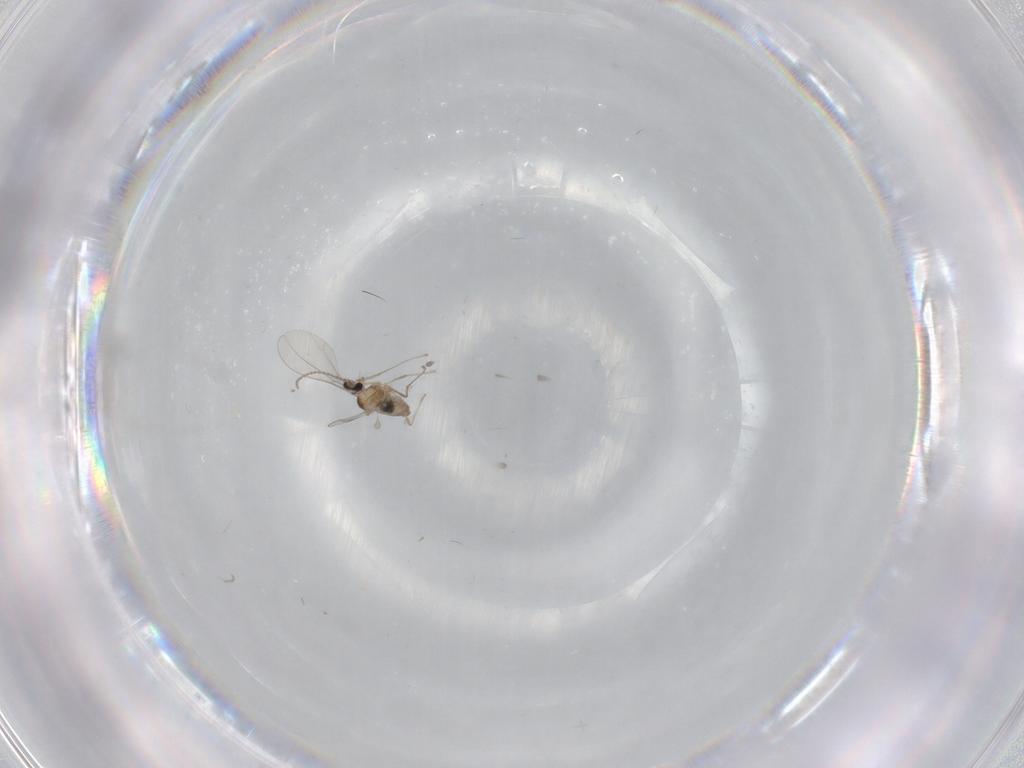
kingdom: Animalia
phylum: Arthropoda
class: Insecta
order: Diptera
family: Cecidomyiidae
